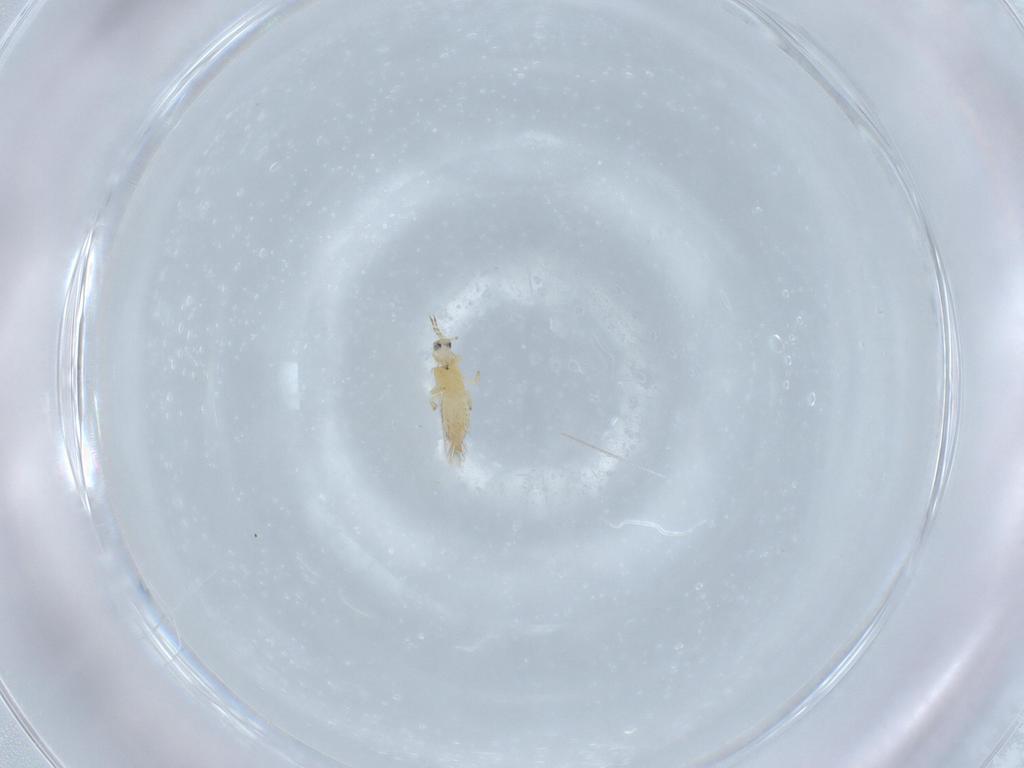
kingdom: Animalia
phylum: Arthropoda
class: Insecta
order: Thysanoptera
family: Thripidae
